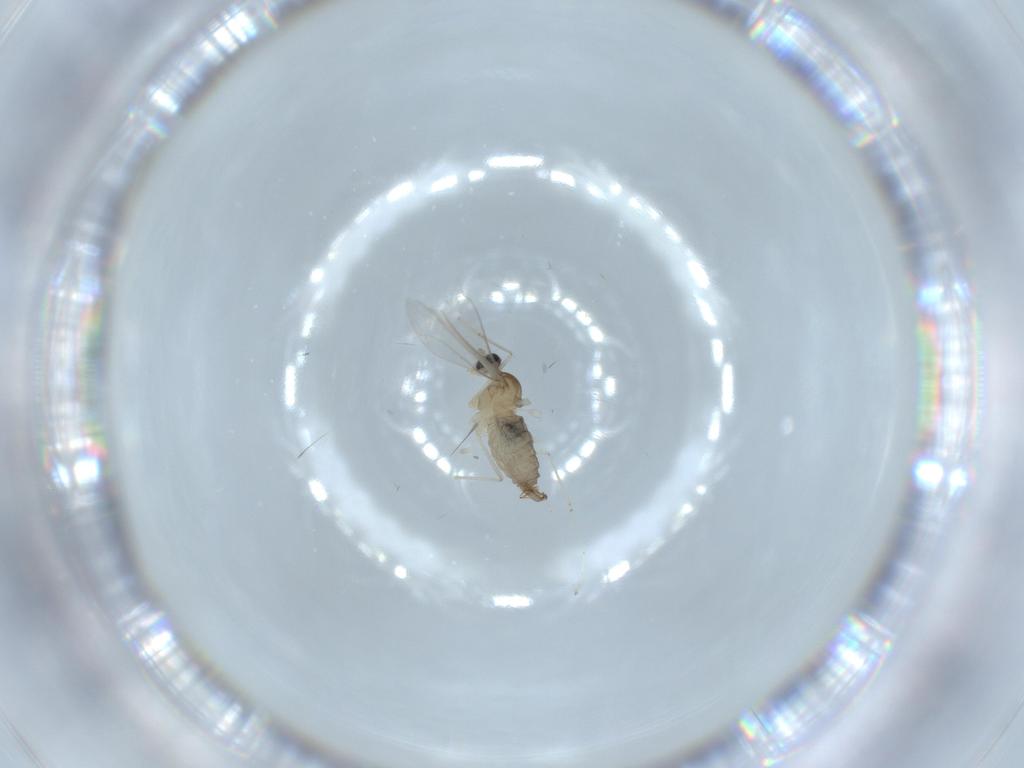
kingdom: Animalia
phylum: Arthropoda
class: Insecta
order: Diptera
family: Cecidomyiidae
